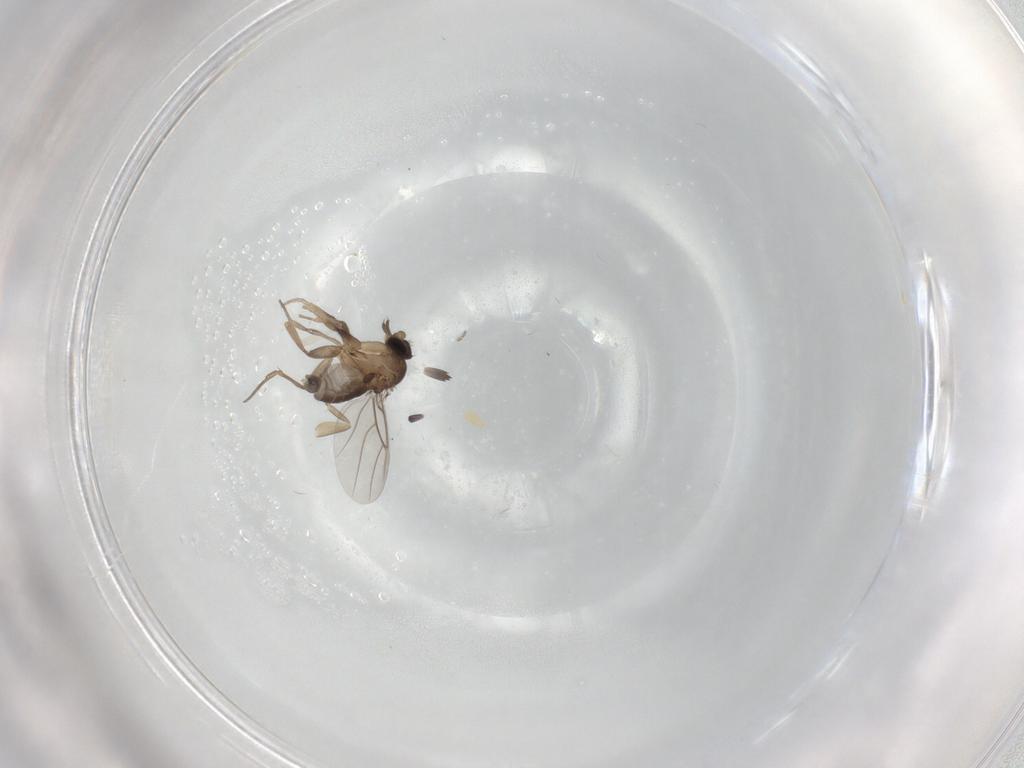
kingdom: Animalia
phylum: Arthropoda
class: Insecta
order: Diptera
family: Phoridae
